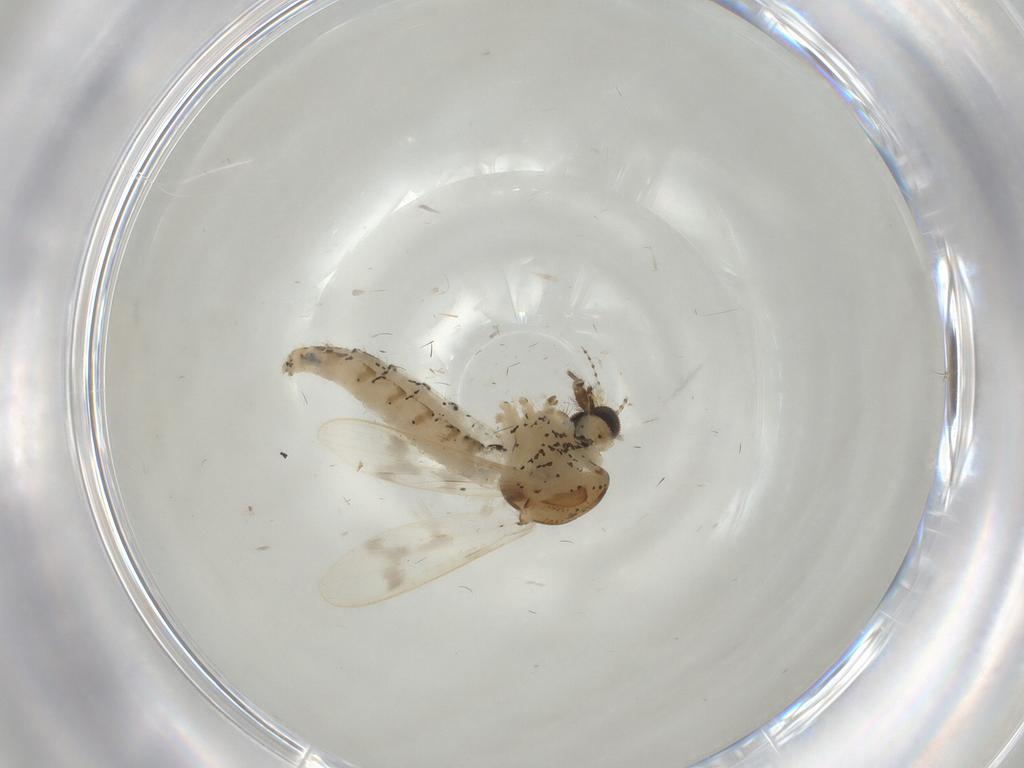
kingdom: Animalia
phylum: Arthropoda
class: Insecta
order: Diptera
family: Chaoboridae
